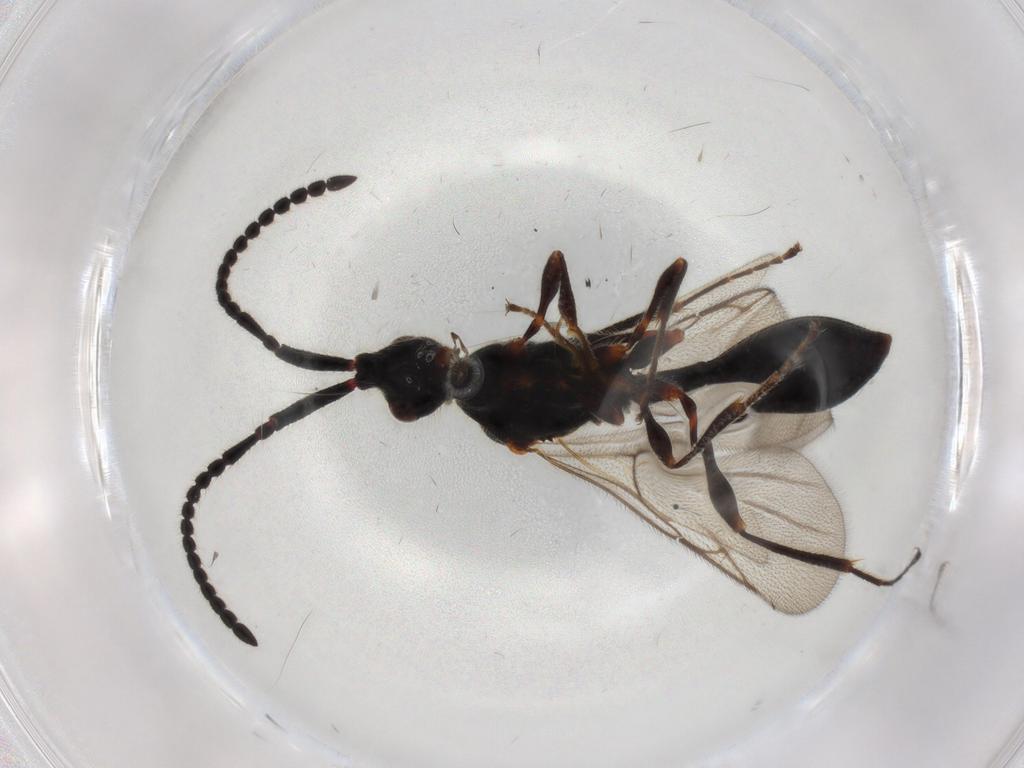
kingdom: Animalia
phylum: Arthropoda
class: Insecta
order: Hymenoptera
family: Diapriidae
